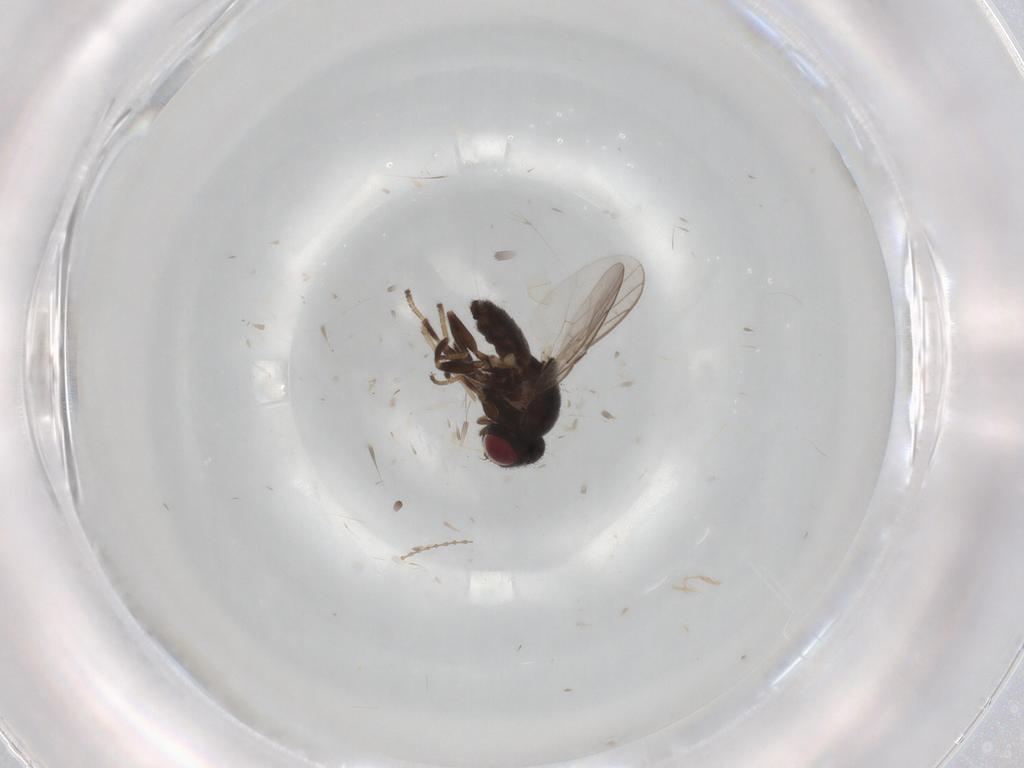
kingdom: Animalia
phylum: Arthropoda
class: Insecta
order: Diptera
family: Chloropidae
